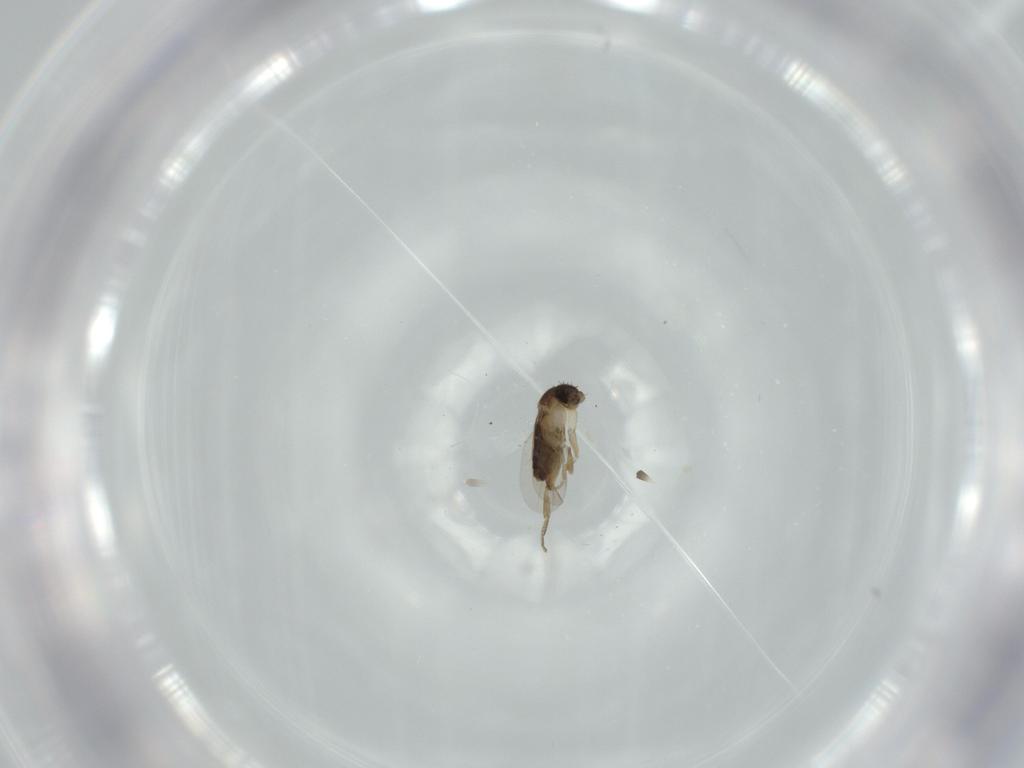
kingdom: Animalia
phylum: Arthropoda
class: Insecta
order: Diptera
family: Phoridae
